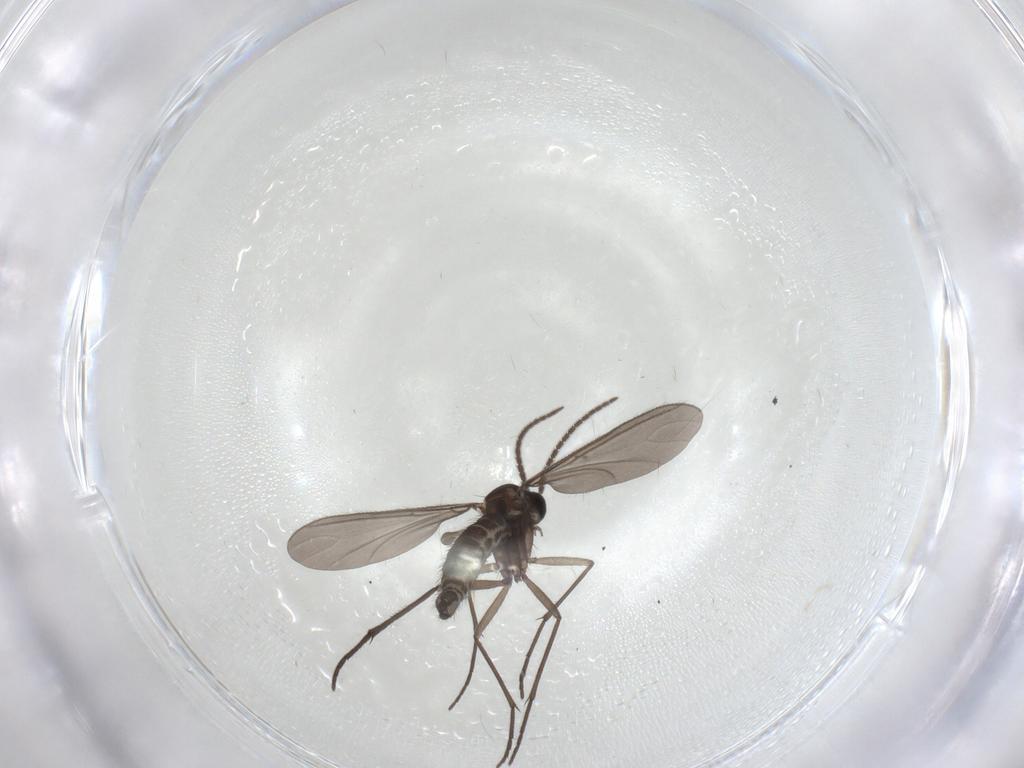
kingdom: Animalia
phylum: Arthropoda
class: Insecta
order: Diptera
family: Sciaridae
